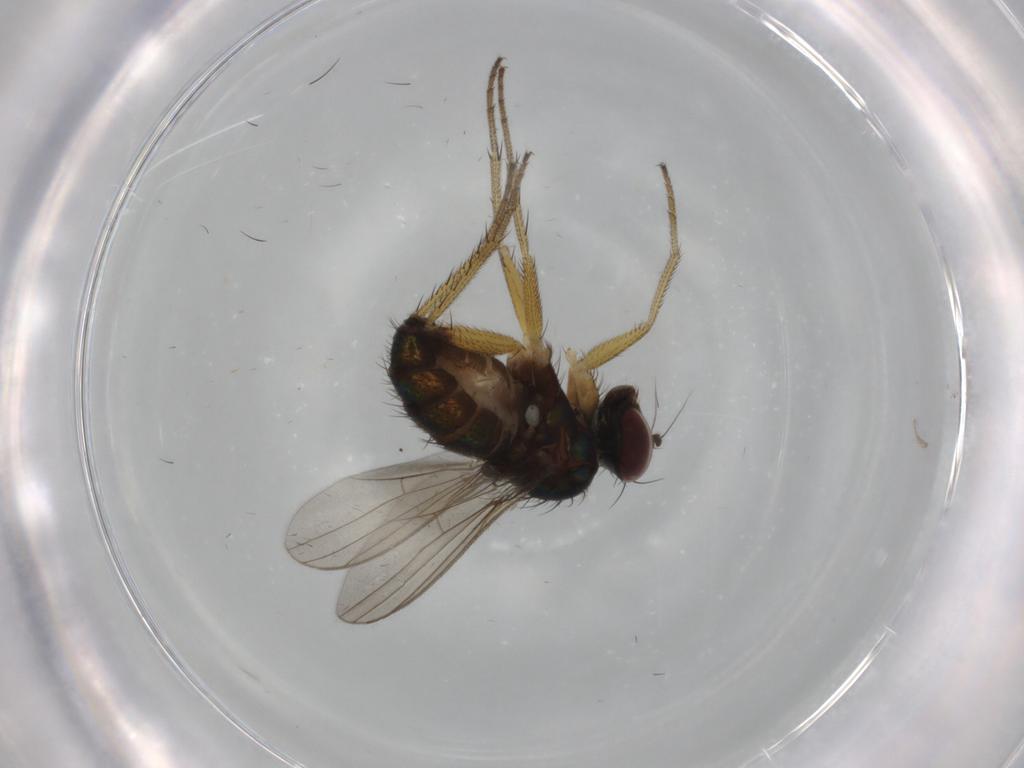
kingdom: Animalia
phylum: Arthropoda
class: Insecta
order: Diptera
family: Dolichopodidae
